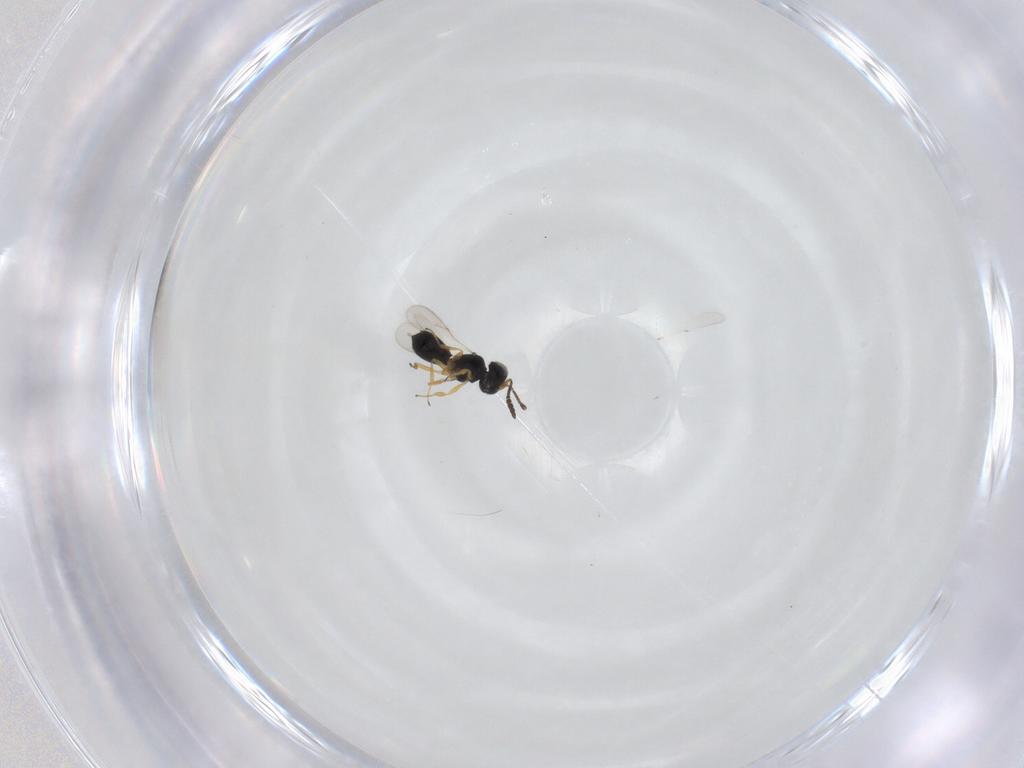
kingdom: Animalia
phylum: Arthropoda
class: Insecta
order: Hymenoptera
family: Scelionidae
